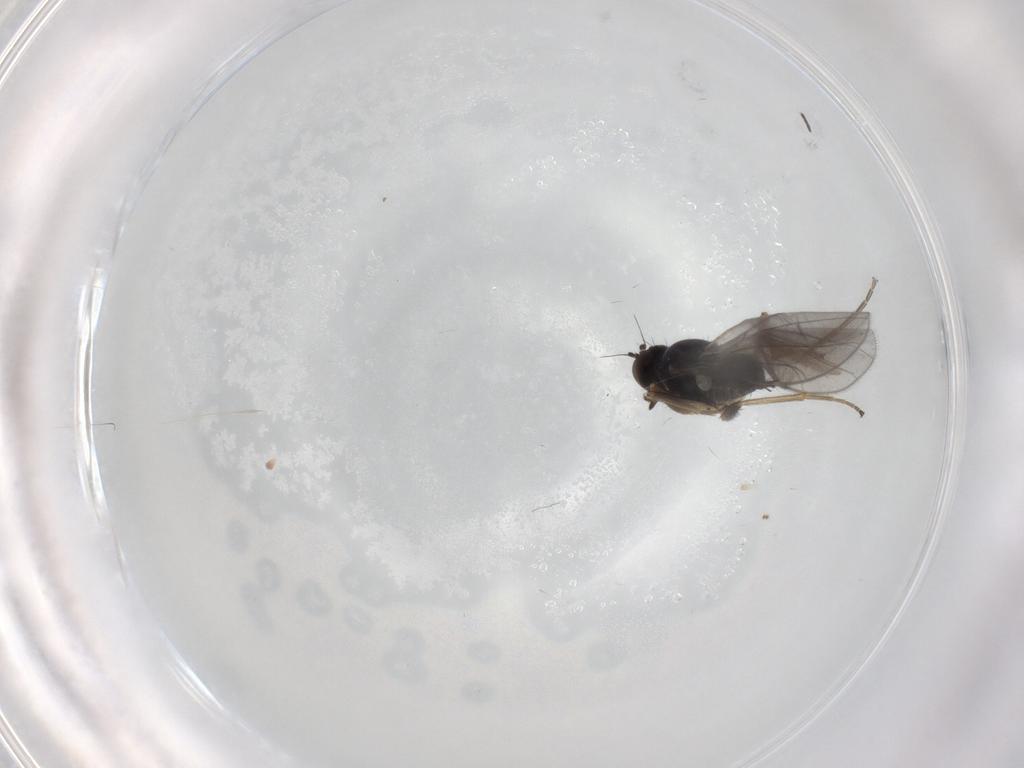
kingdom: Animalia
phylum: Arthropoda
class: Insecta
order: Diptera
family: Hybotidae
